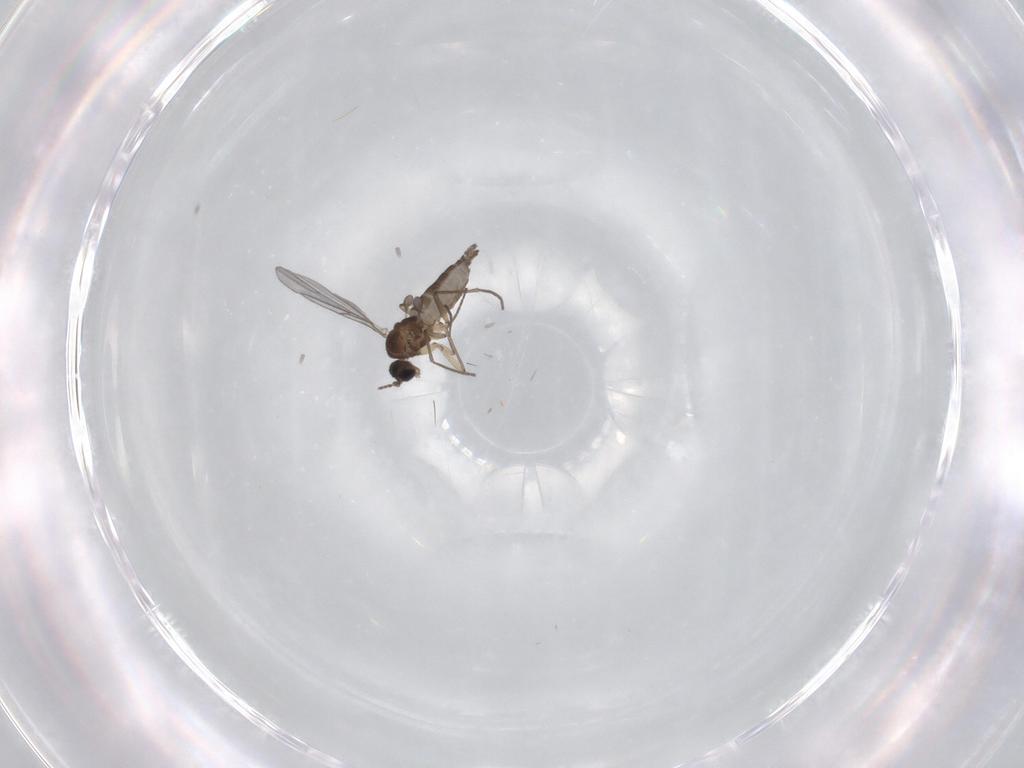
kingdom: Animalia
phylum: Arthropoda
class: Insecta
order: Diptera
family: Sciaridae
